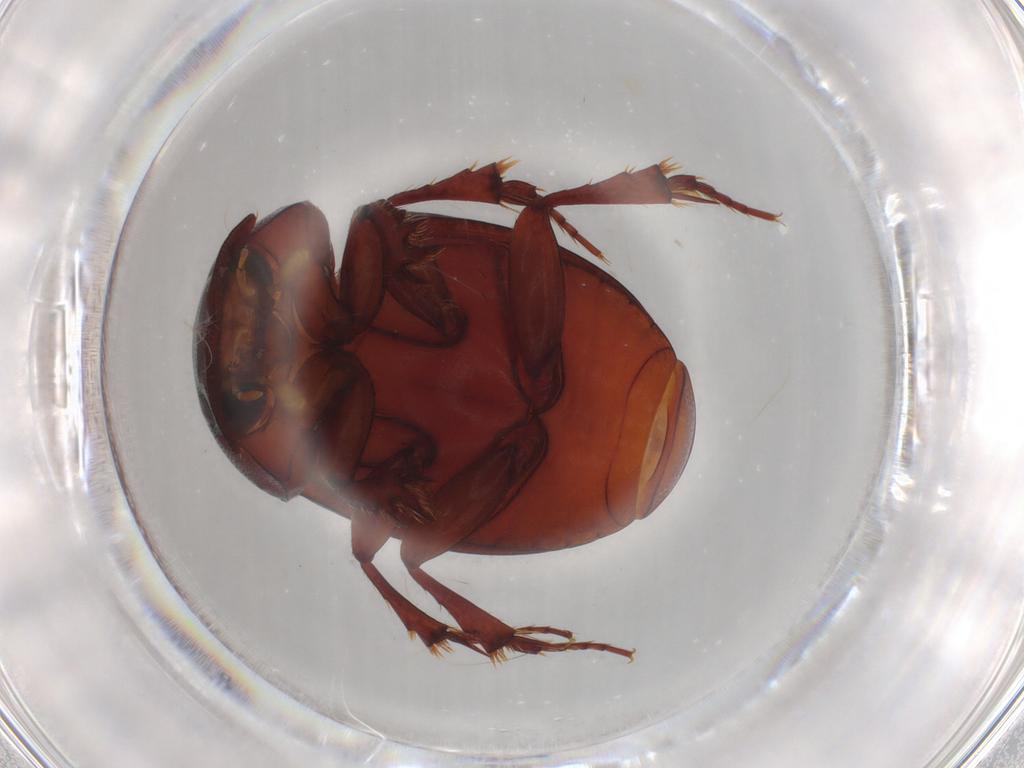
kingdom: Animalia
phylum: Arthropoda
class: Insecta
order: Coleoptera
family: Scarabaeidae
